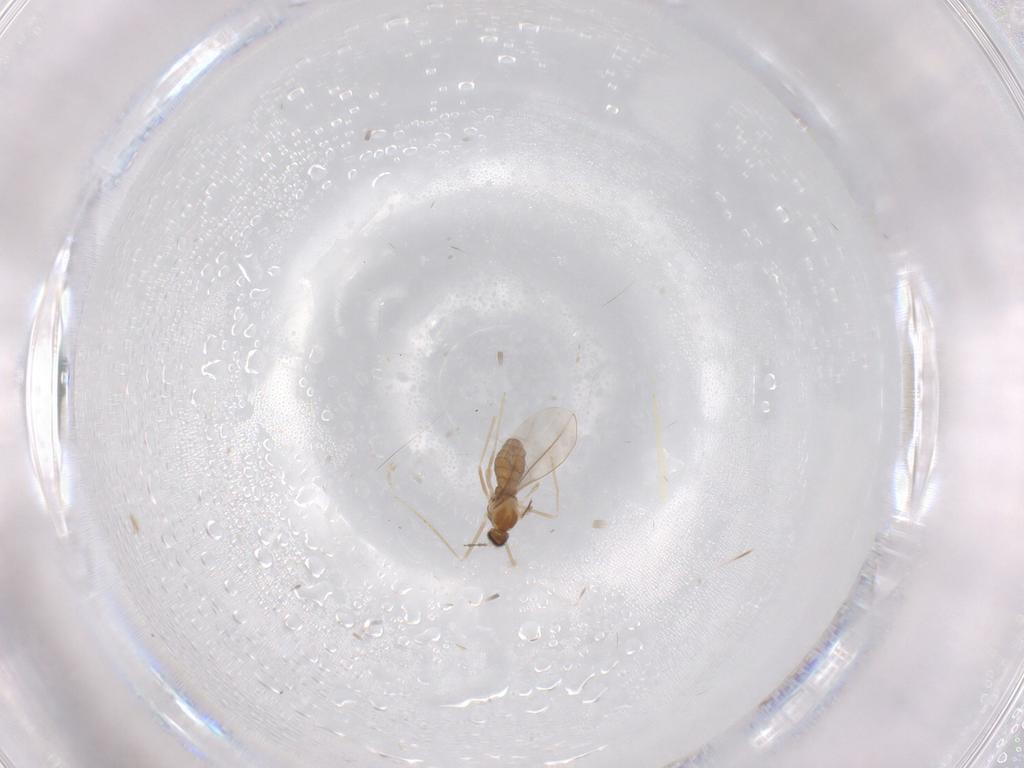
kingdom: Animalia
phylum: Arthropoda
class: Insecta
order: Diptera
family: Cecidomyiidae
